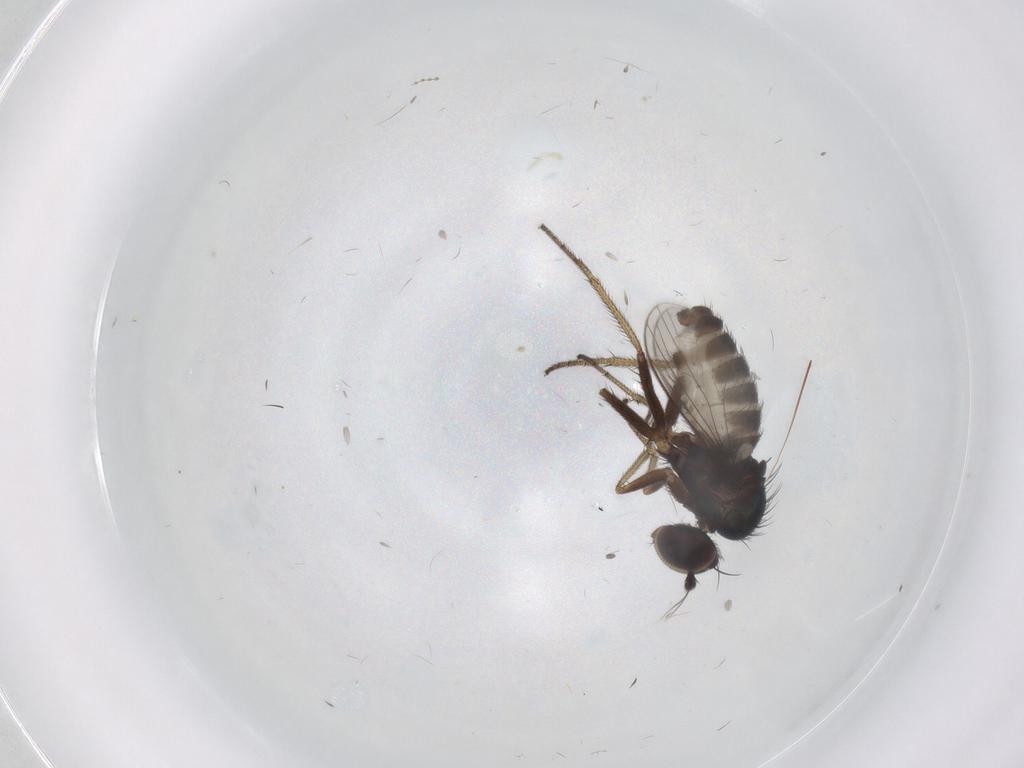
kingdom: Animalia
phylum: Arthropoda
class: Insecta
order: Diptera
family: Dolichopodidae
